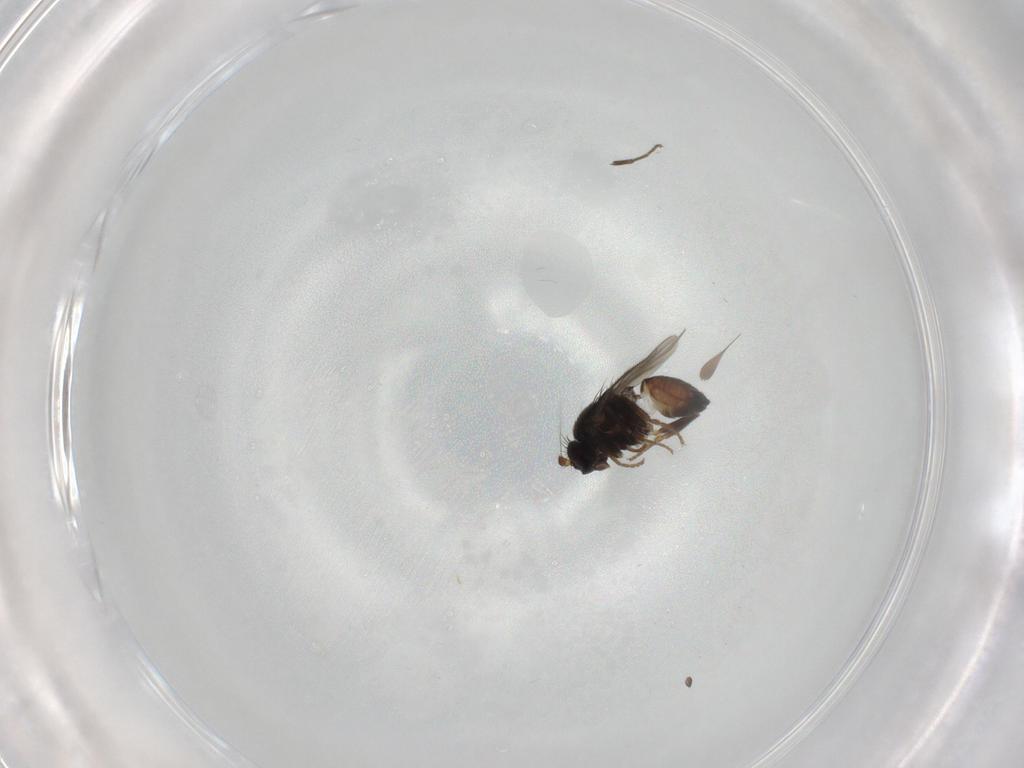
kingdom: Animalia
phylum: Arthropoda
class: Insecta
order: Diptera
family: Sphaeroceridae
